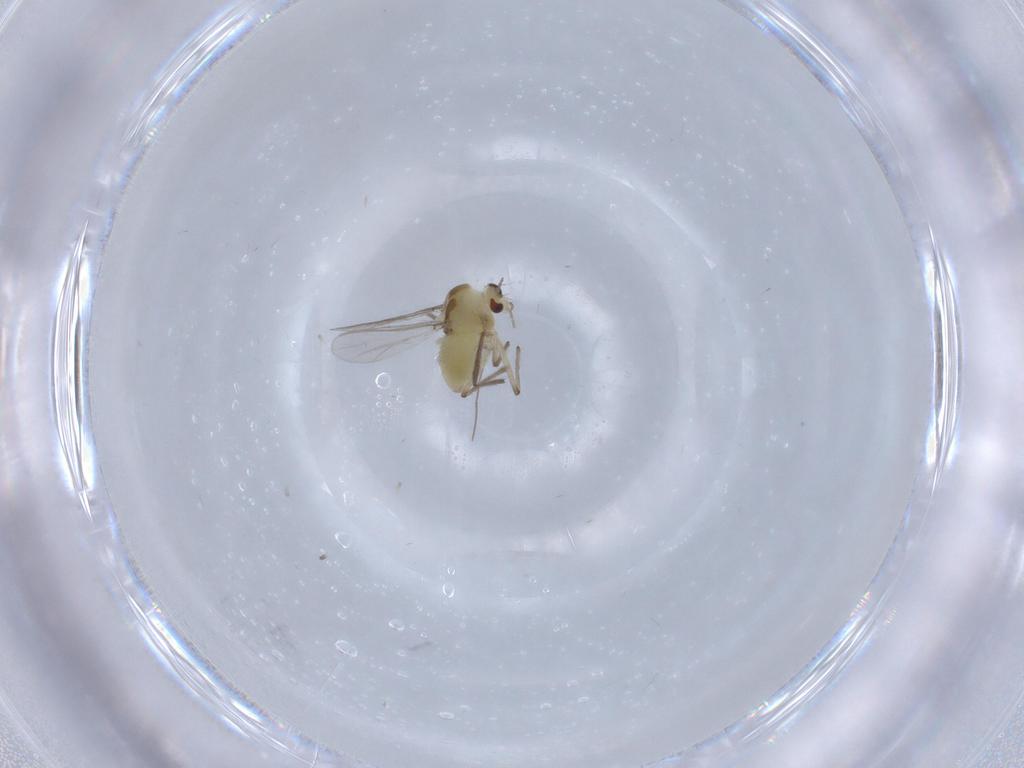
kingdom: Animalia
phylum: Arthropoda
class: Insecta
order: Diptera
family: Chironomidae
